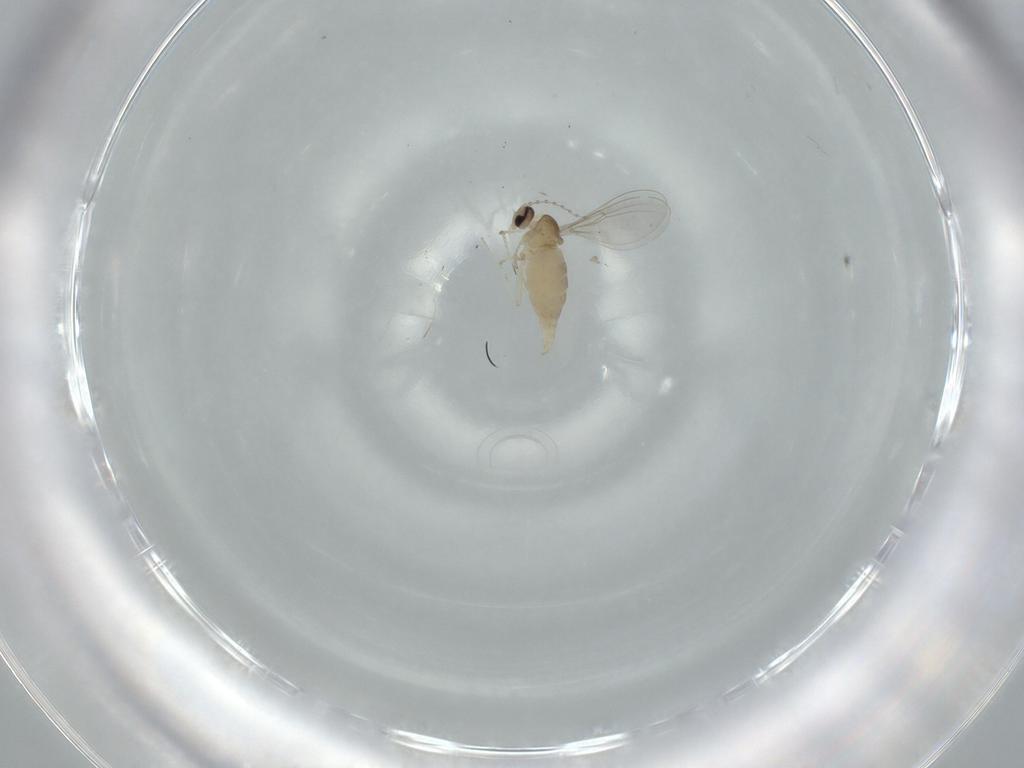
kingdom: Animalia
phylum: Arthropoda
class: Insecta
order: Diptera
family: Cecidomyiidae
